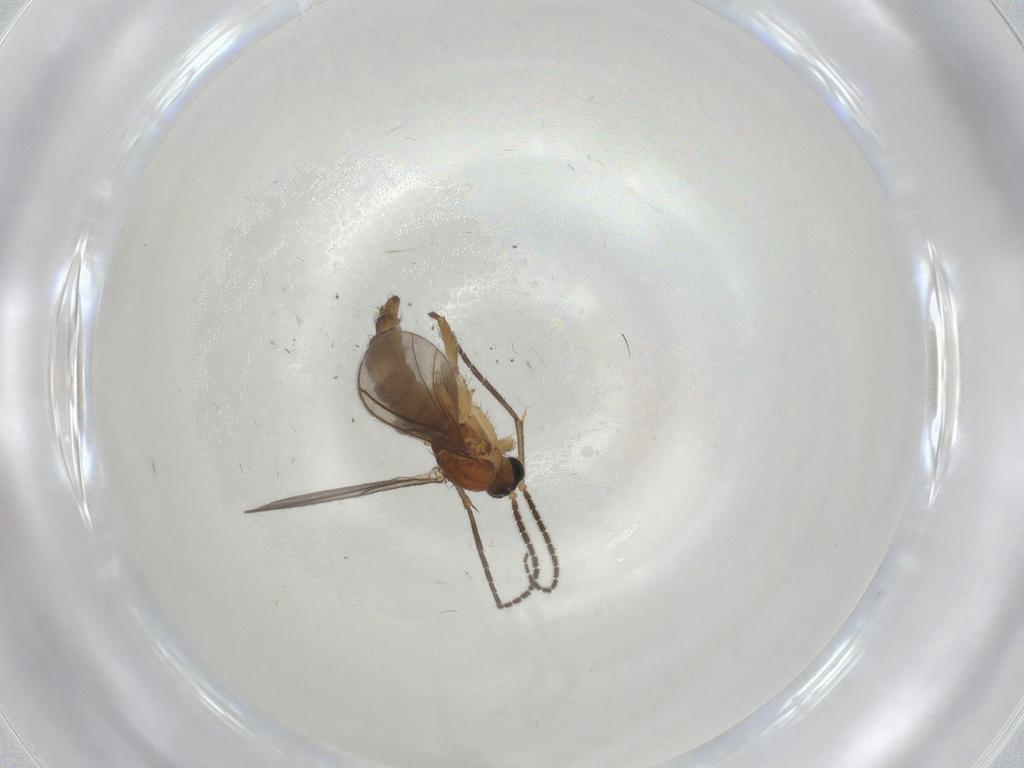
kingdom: Animalia
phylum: Arthropoda
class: Insecta
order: Diptera
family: Sciaridae
